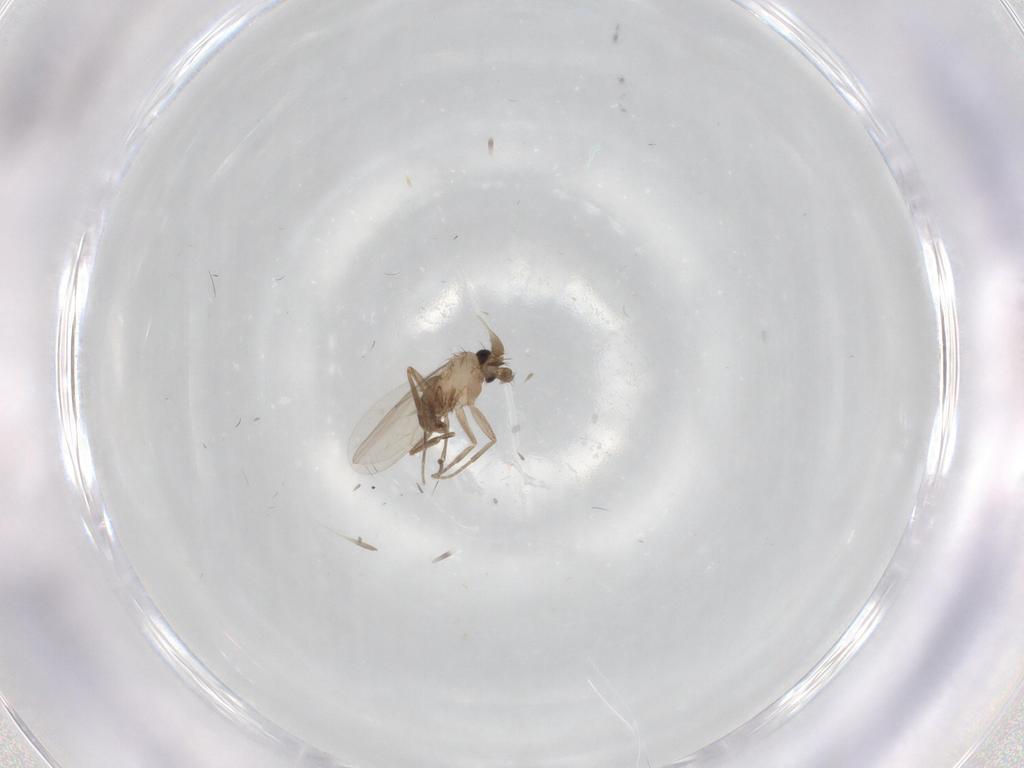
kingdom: Animalia
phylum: Arthropoda
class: Insecta
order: Diptera
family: Phoridae
